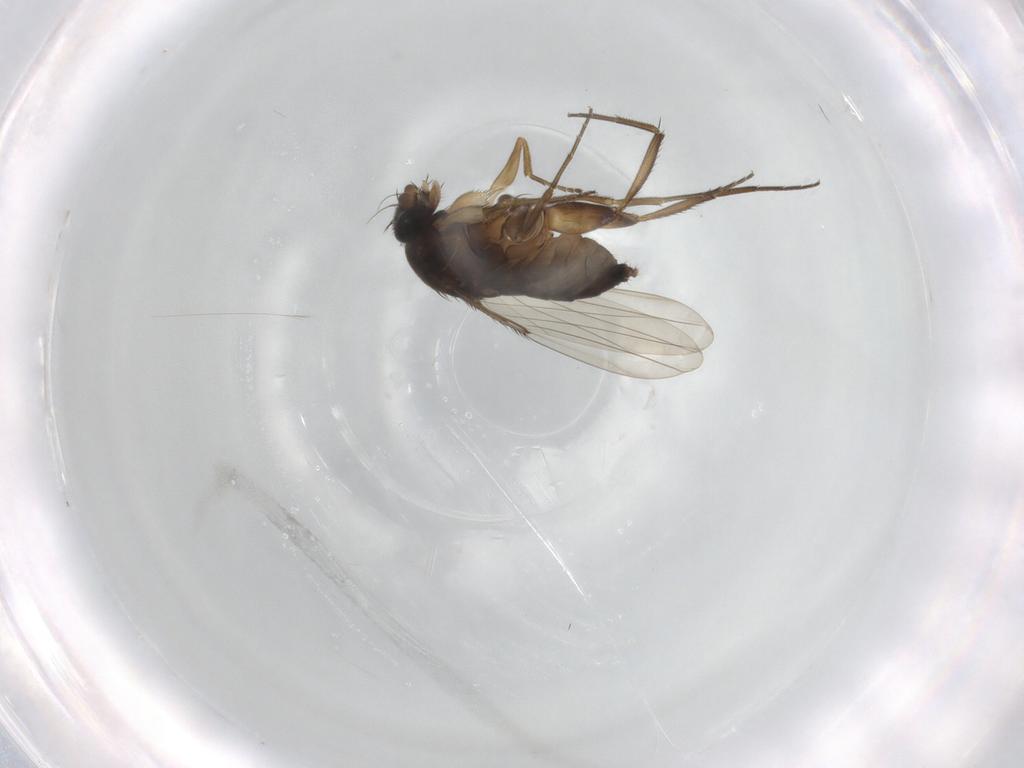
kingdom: Animalia
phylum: Arthropoda
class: Insecta
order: Diptera
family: Phoridae
